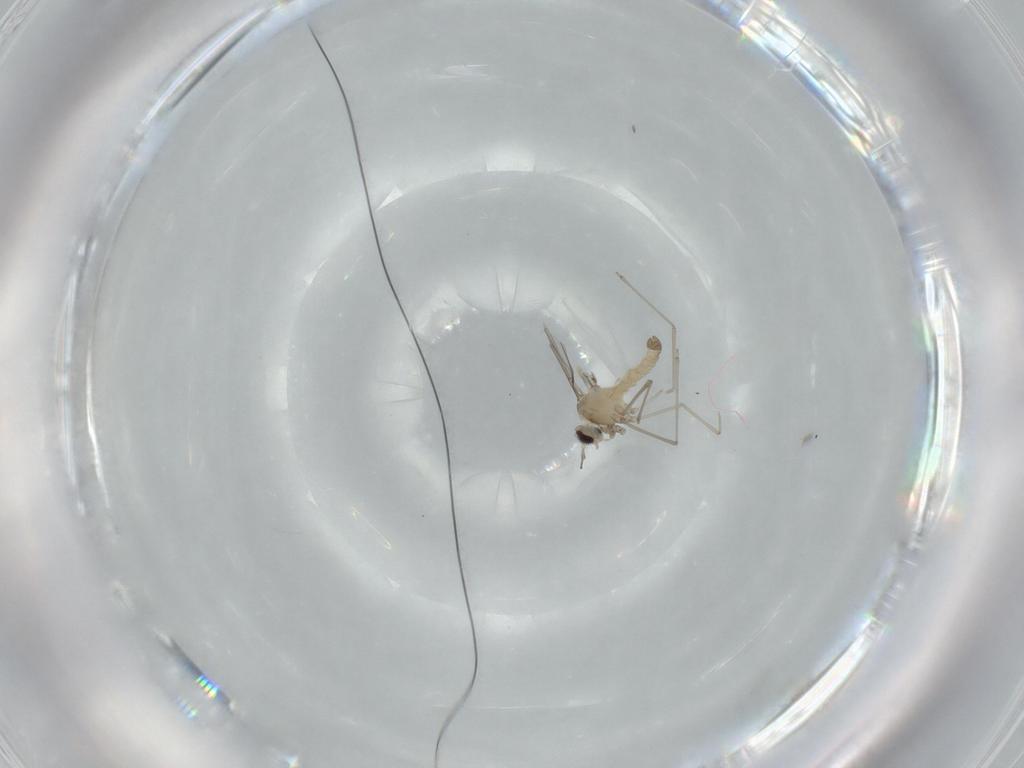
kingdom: Animalia
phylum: Arthropoda
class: Insecta
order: Diptera
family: Cecidomyiidae
